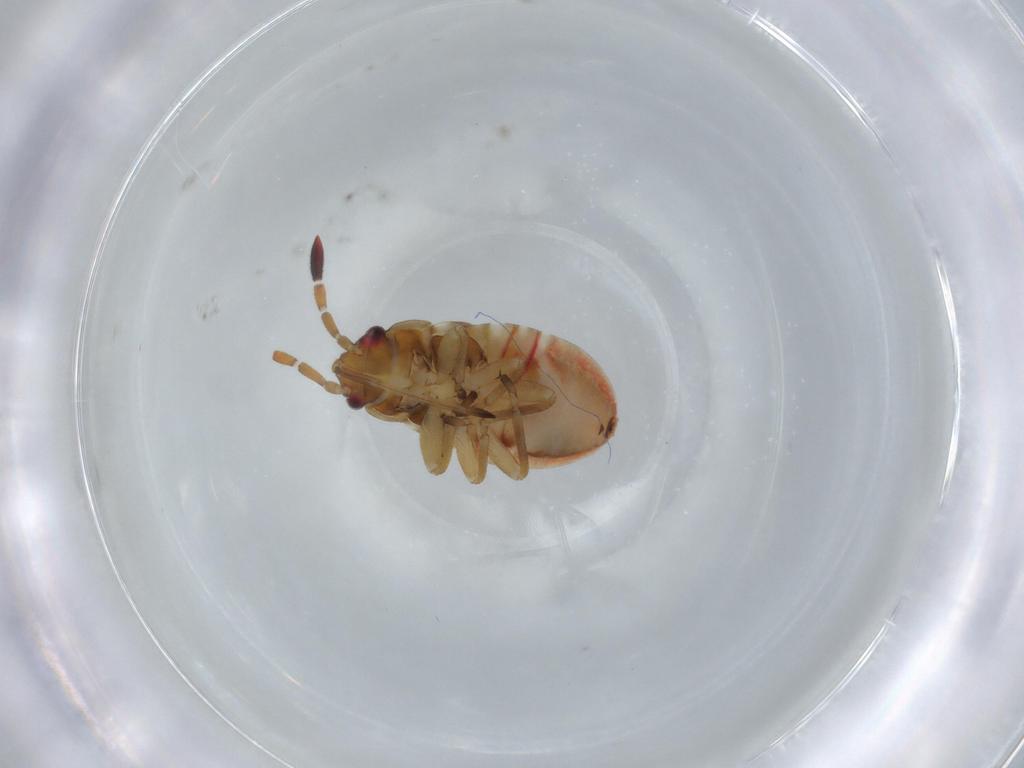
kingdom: Animalia
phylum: Arthropoda
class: Insecta
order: Hemiptera
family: Rhyparochromidae
